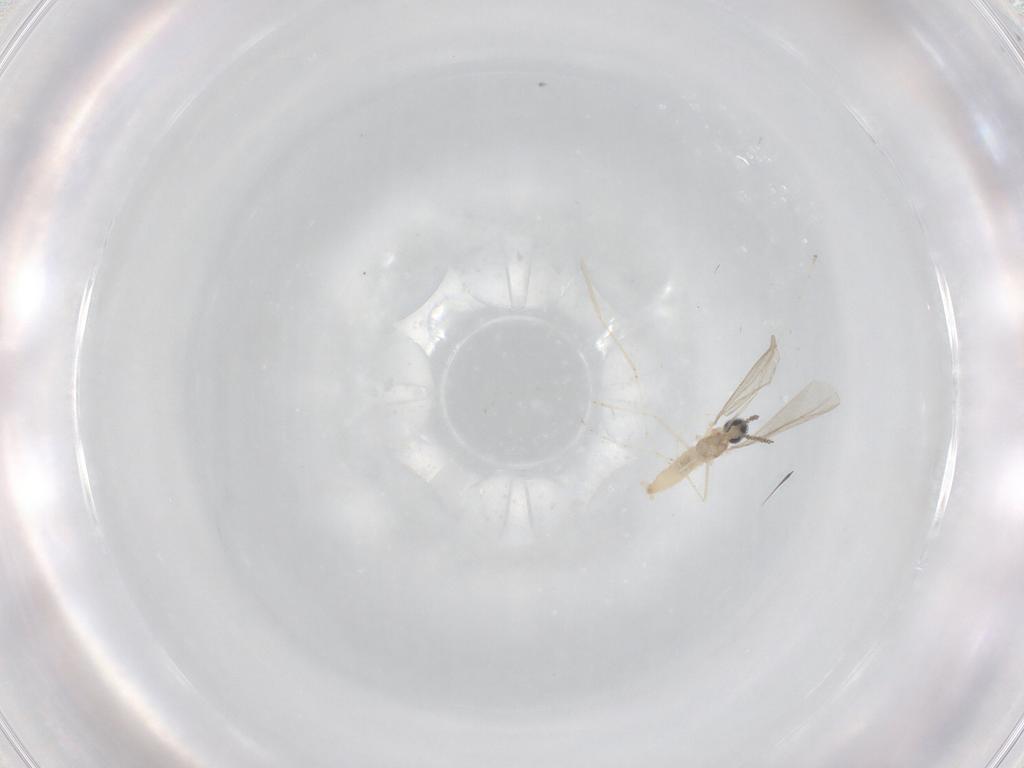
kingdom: Animalia
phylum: Arthropoda
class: Insecta
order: Diptera
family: Cecidomyiidae
